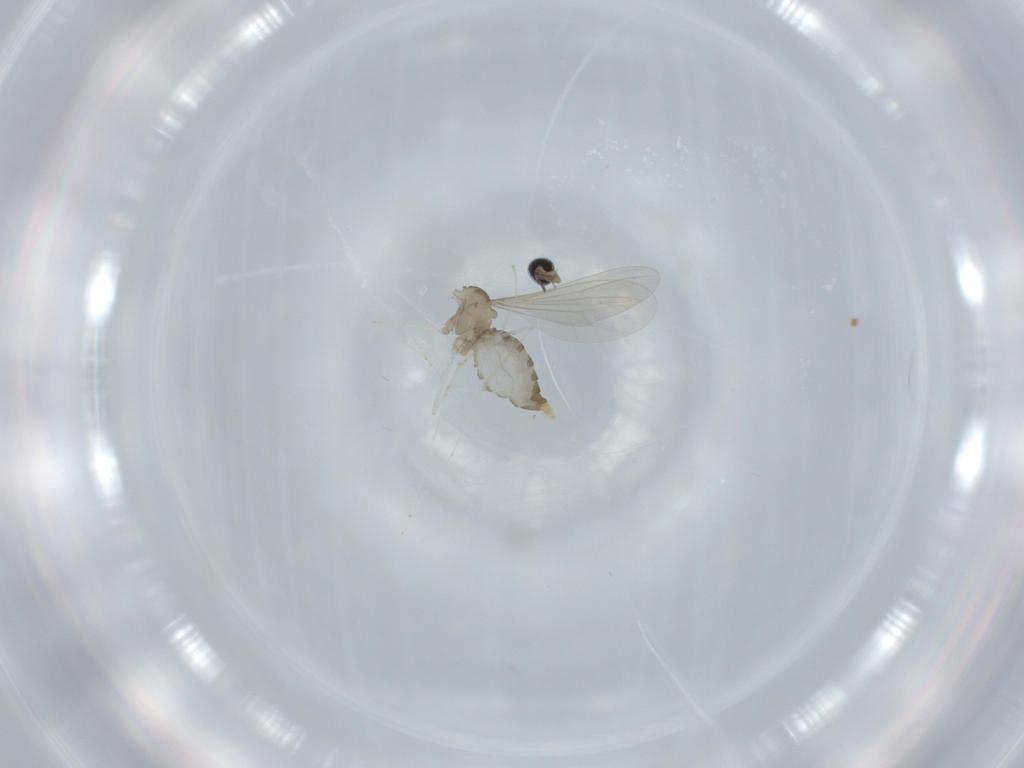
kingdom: Animalia
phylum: Arthropoda
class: Insecta
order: Diptera
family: Cecidomyiidae
